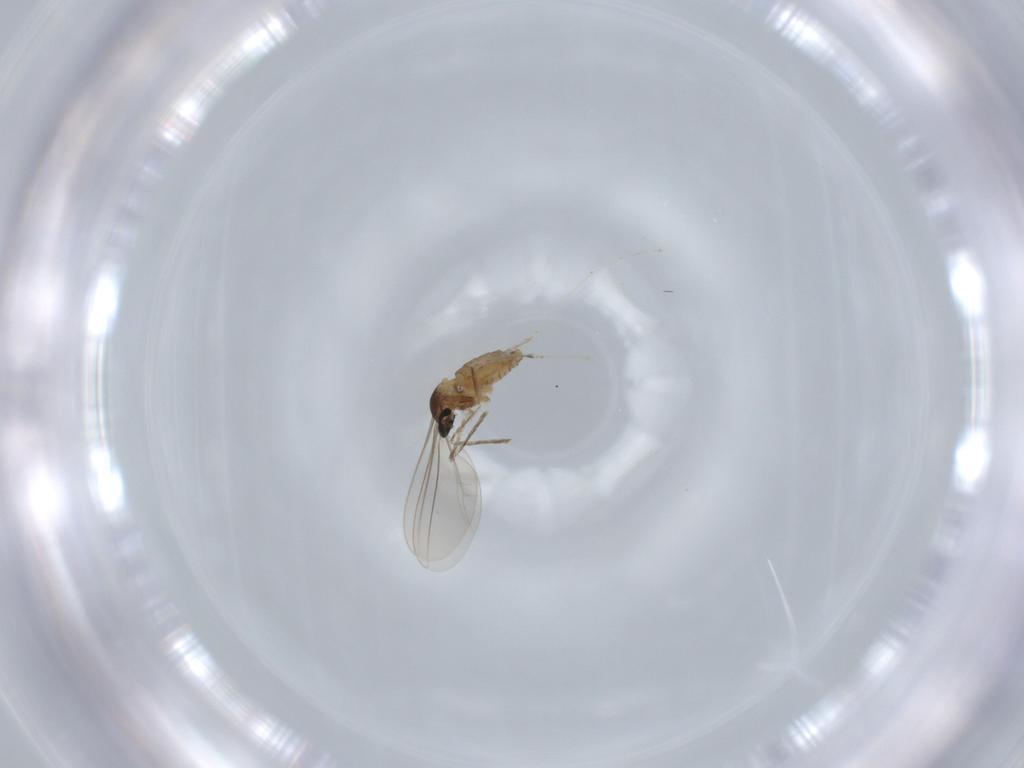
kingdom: Animalia
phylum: Arthropoda
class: Insecta
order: Diptera
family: Cecidomyiidae
